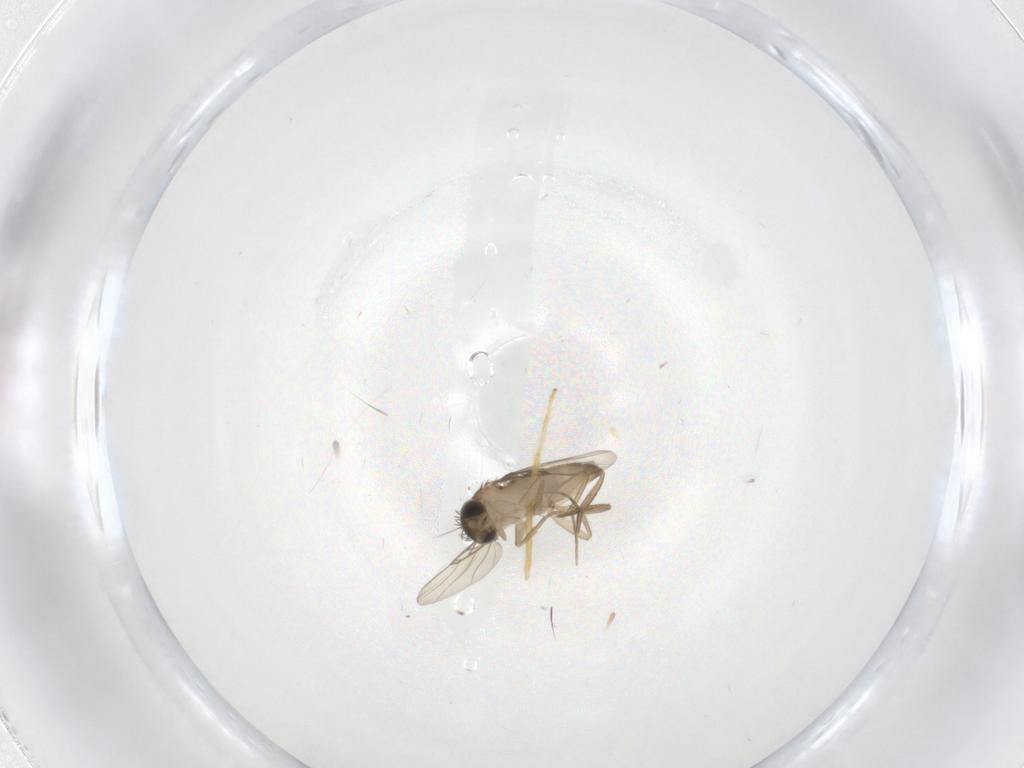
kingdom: Animalia
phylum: Arthropoda
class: Insecta
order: Diptera
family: Phoridae
